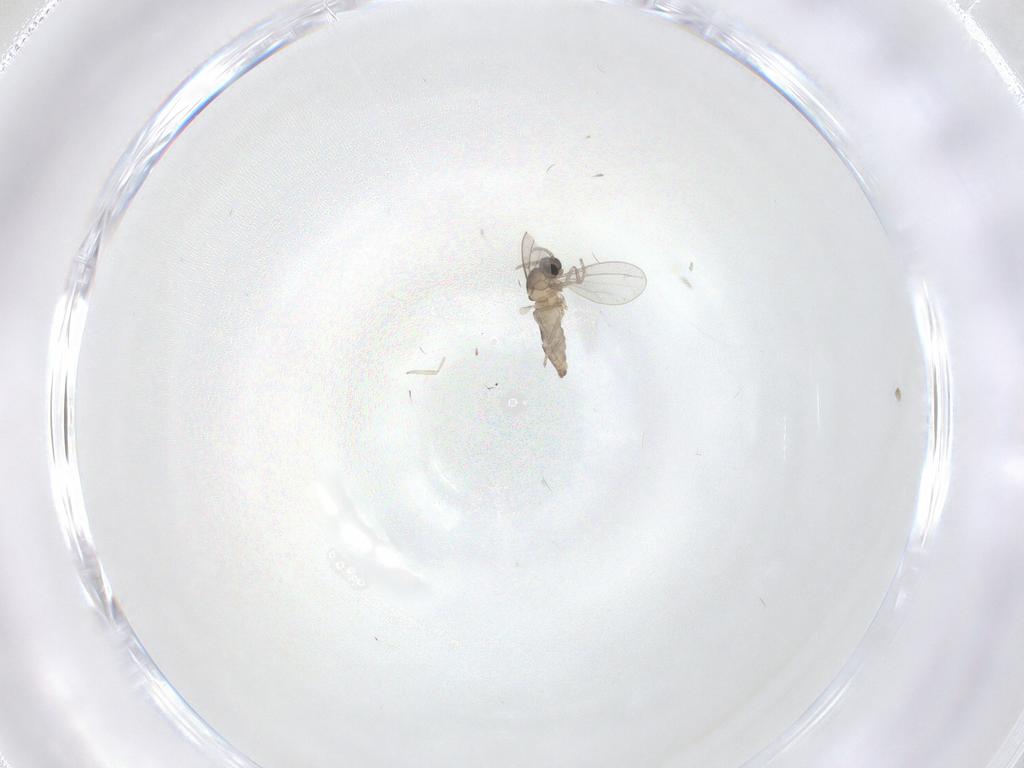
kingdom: Animalia
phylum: Arthropoda
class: Insecta
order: Diptera
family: Cecidomyiidae
